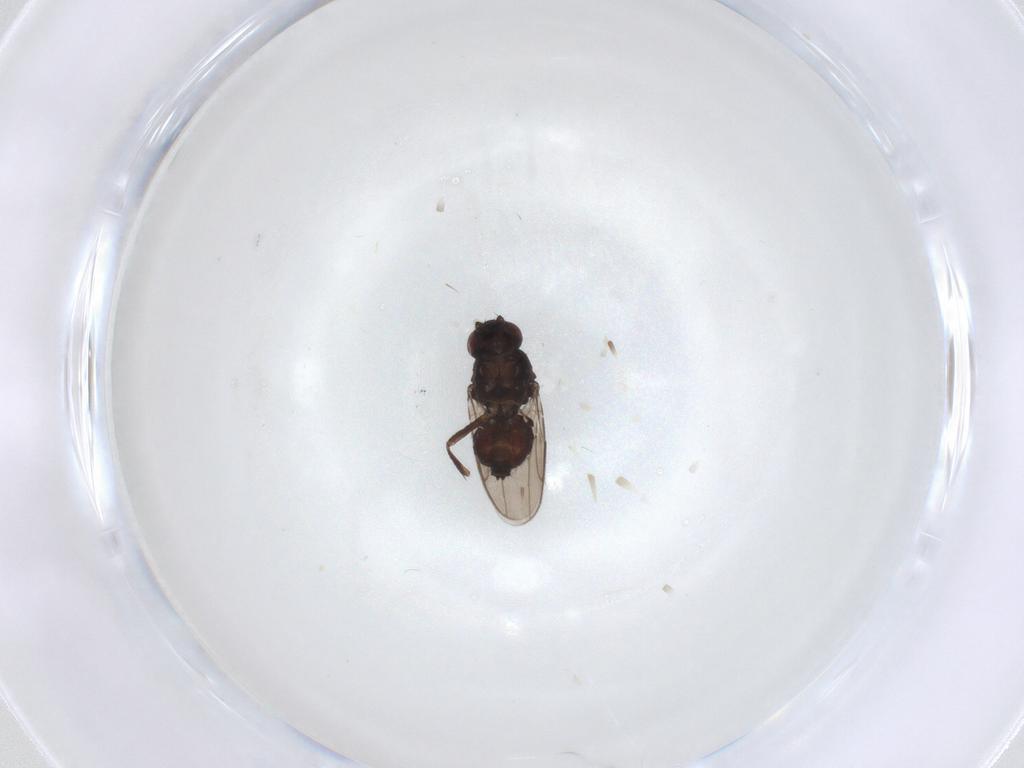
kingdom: Animalia
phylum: Arthropoda
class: Insecta
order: Diptera
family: Sphaeroceridae
